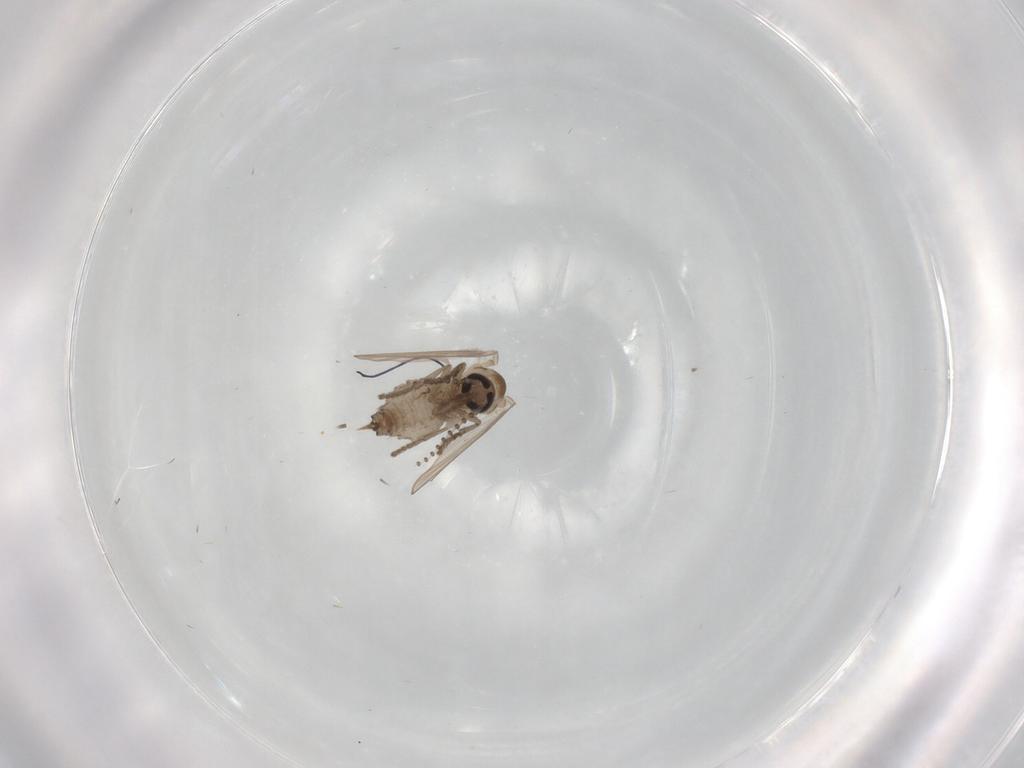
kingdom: Animalia
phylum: Arthropoda
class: Insecta
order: Diptera
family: Psychodidae
